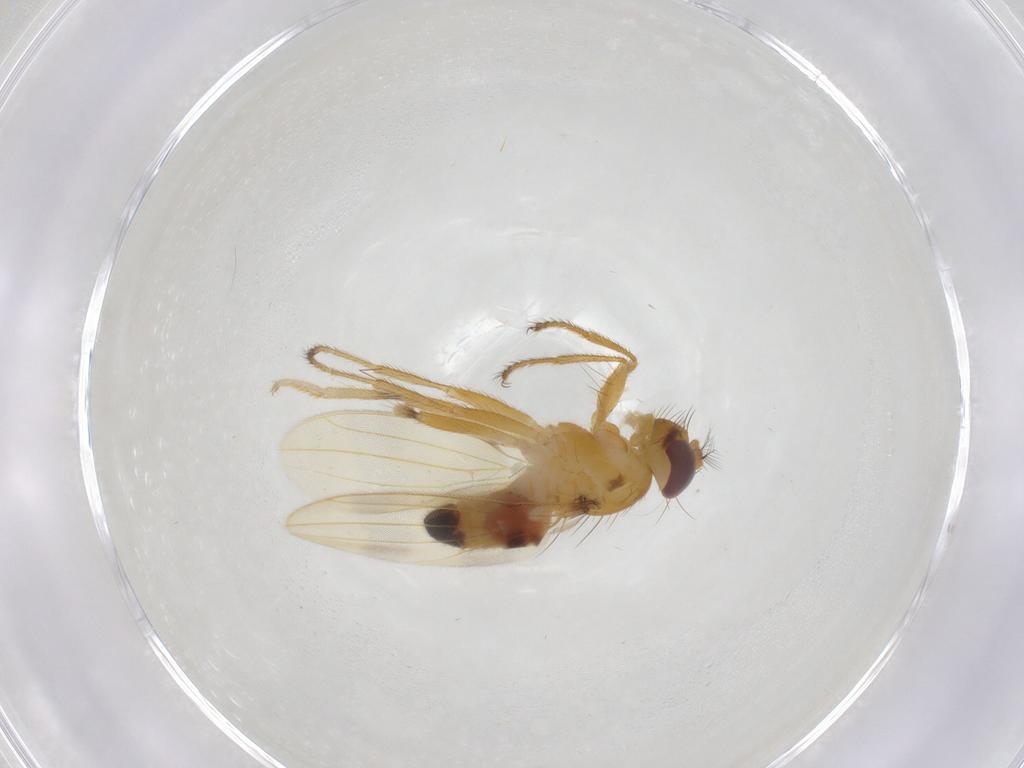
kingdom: Animalia
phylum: Arthropoda
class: Insecta
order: Diptera
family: Periscelididae
